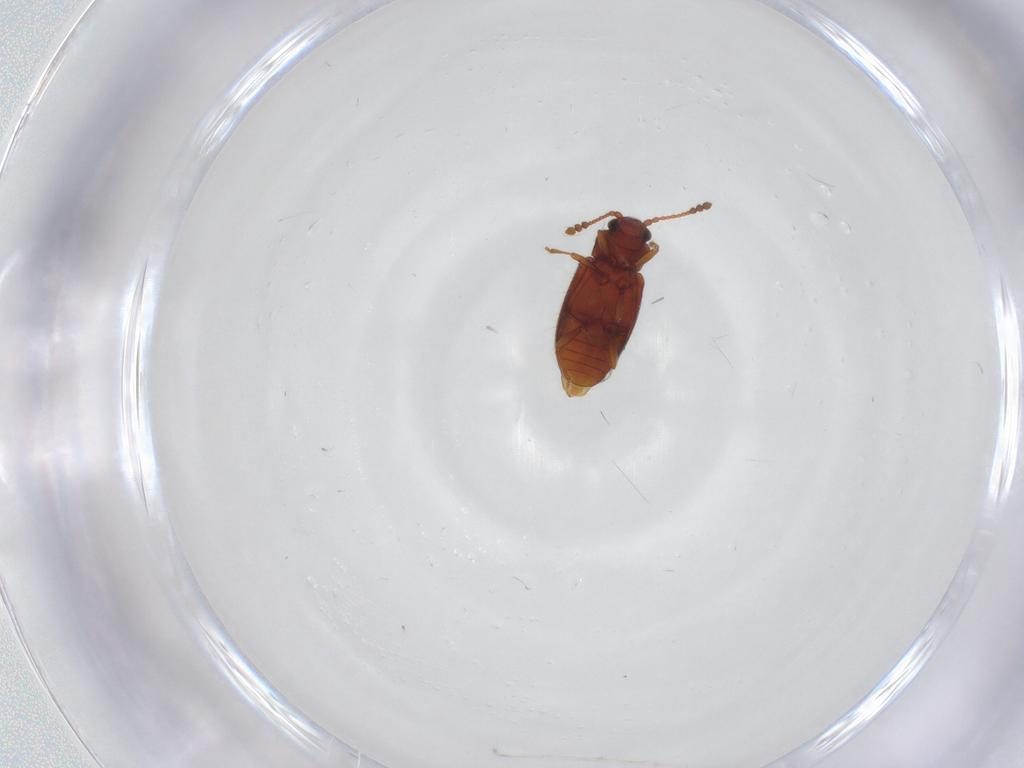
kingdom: Animalia
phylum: Arthropoda
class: Insecta
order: Coleoptera
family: Cryptophagidae
